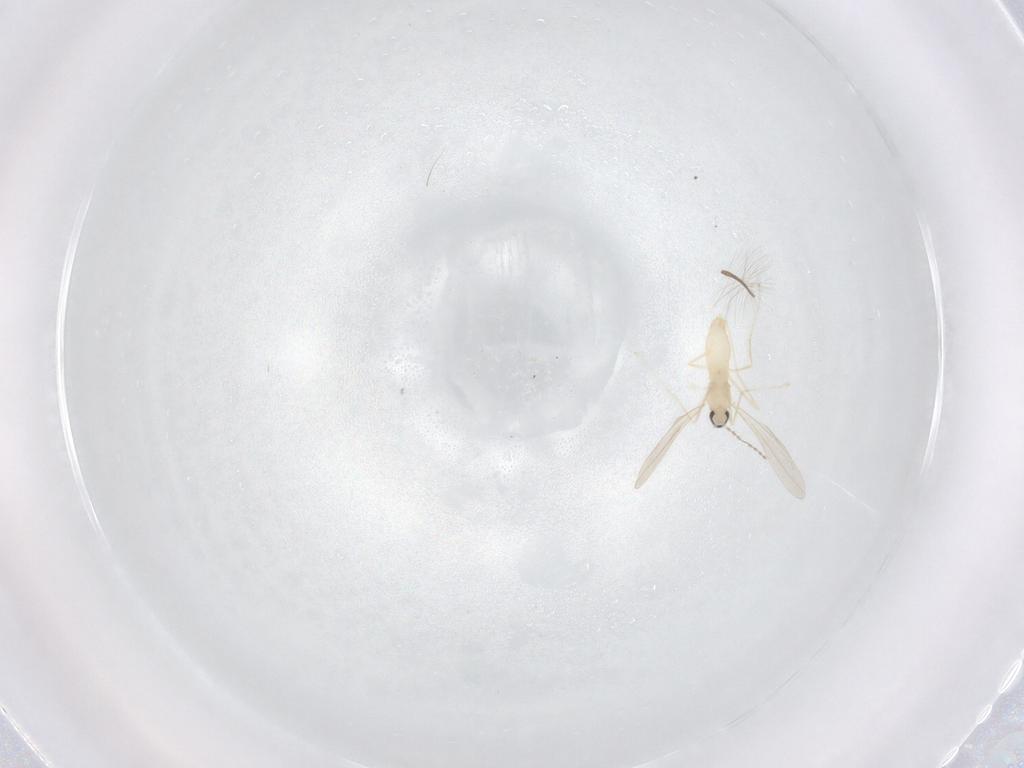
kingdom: Animalia
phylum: Arthropoda
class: Insecta
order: Diptera
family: Cecidomyiidae
